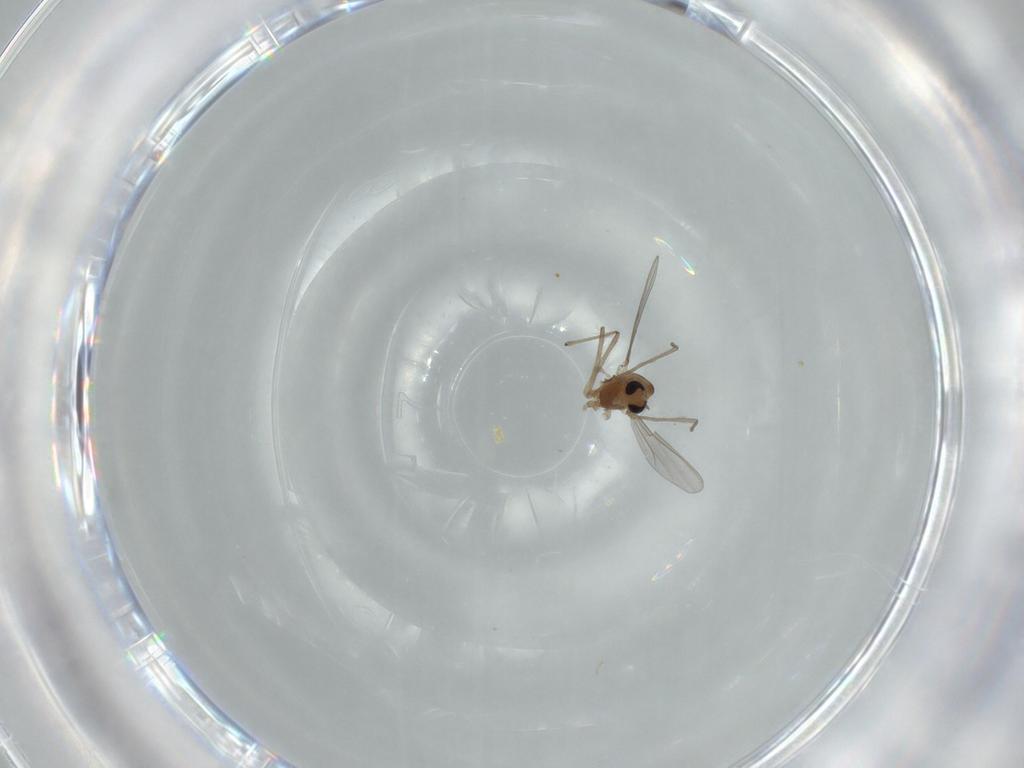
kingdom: Animalia
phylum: Arthropoda
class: Insecta
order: Diptera
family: Chironomidae
